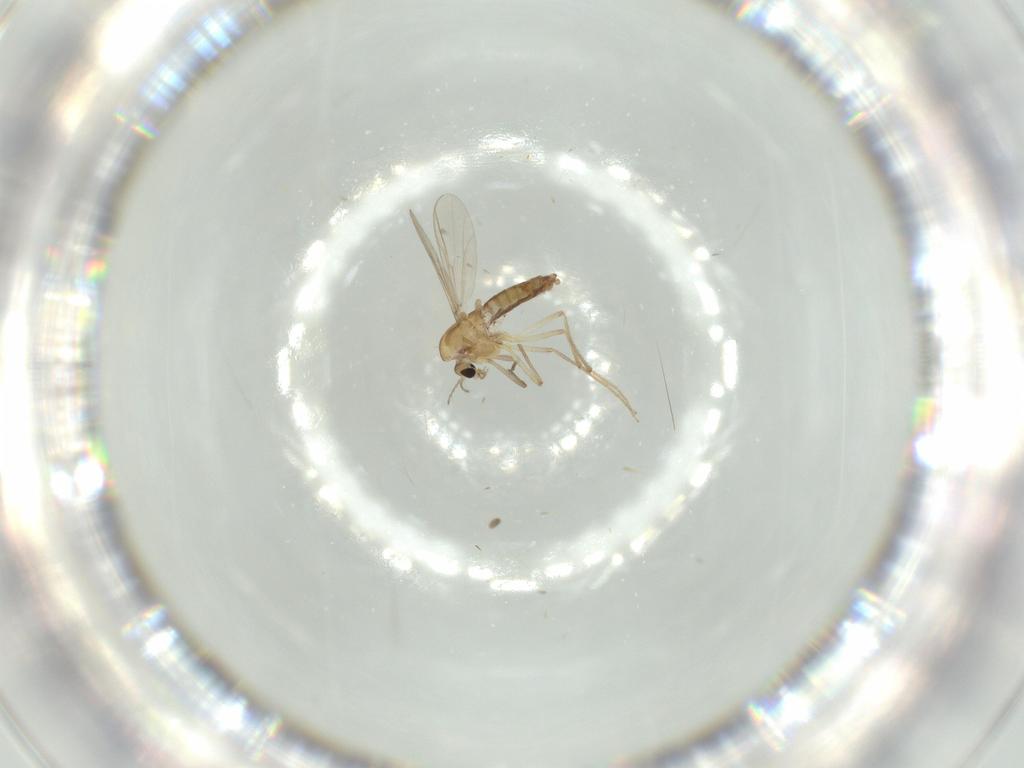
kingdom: Animalia
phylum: Arthropoda
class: Insecta
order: Diptera
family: Chironomidae
